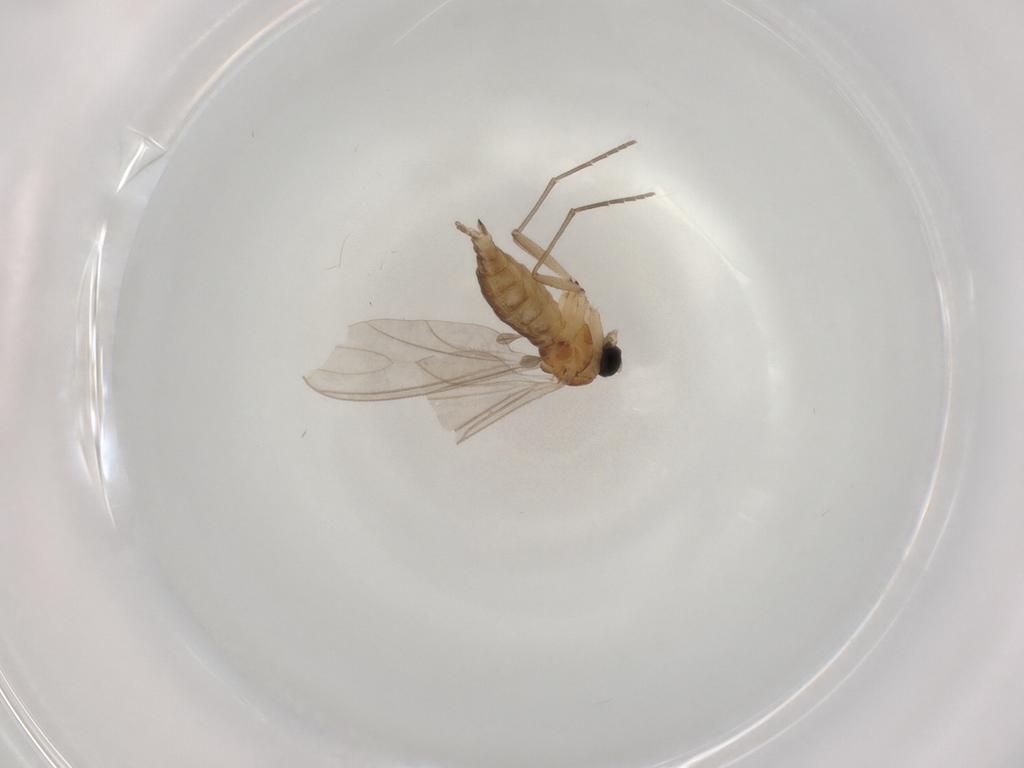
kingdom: Animalia
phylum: Arthropoda
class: Insecta
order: Diptera
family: Sciaridae
